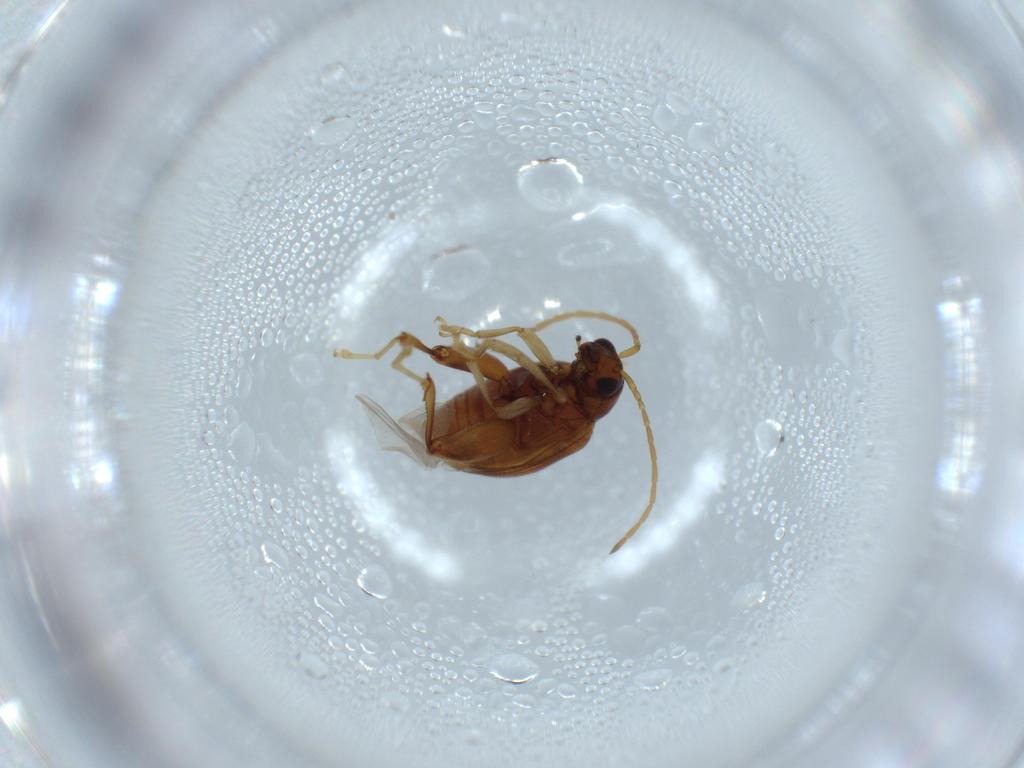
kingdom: Animalia
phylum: Arthropoda
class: Insecta
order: Coleoptera
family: Chrysomelidae
